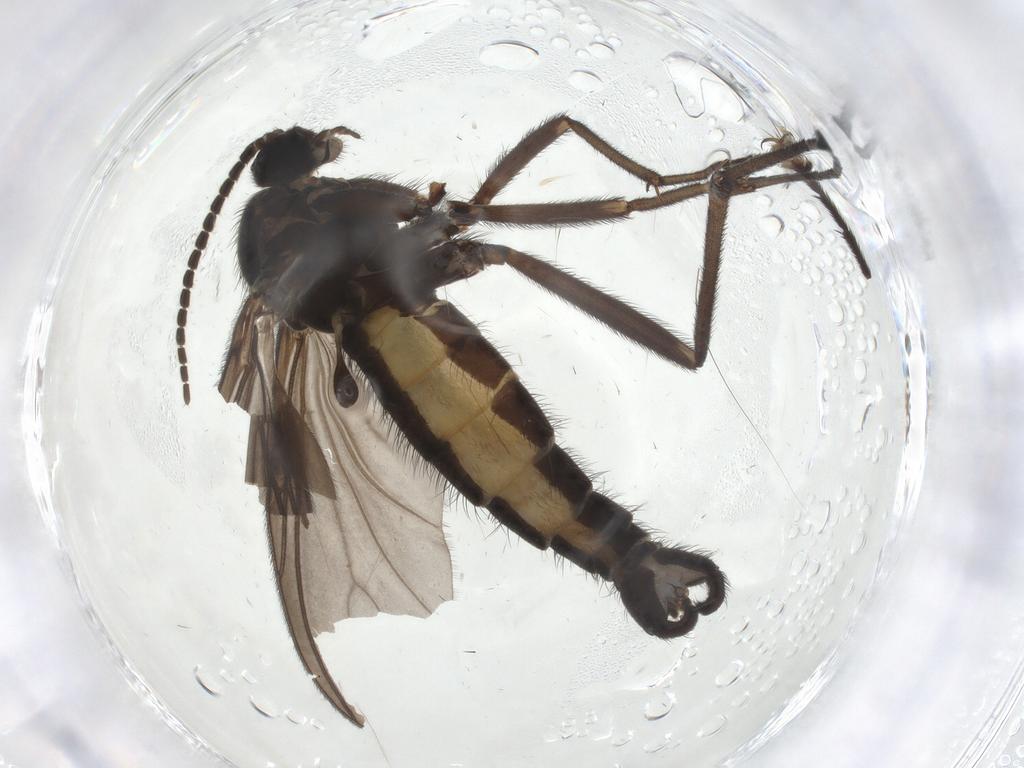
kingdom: Animalia
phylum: Arthropoda
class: Insecta
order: Diptera
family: Sciaridae
